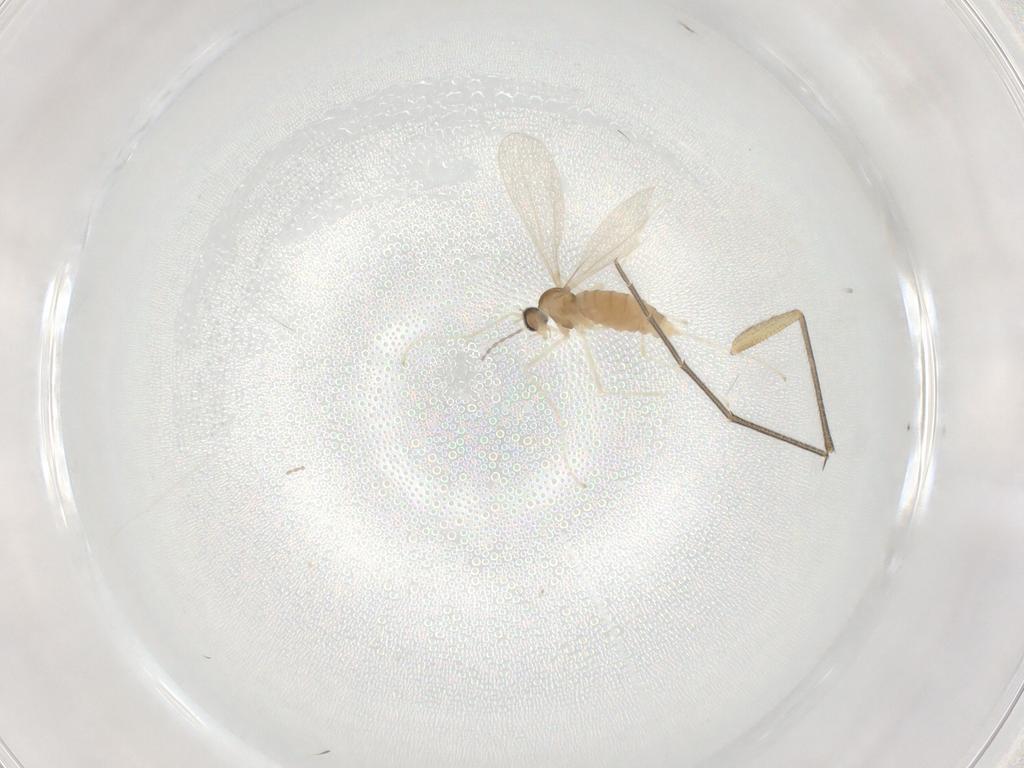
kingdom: Animalia
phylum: Arthropoda
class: Insecta
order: Diptera
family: Cecidomyiidae
